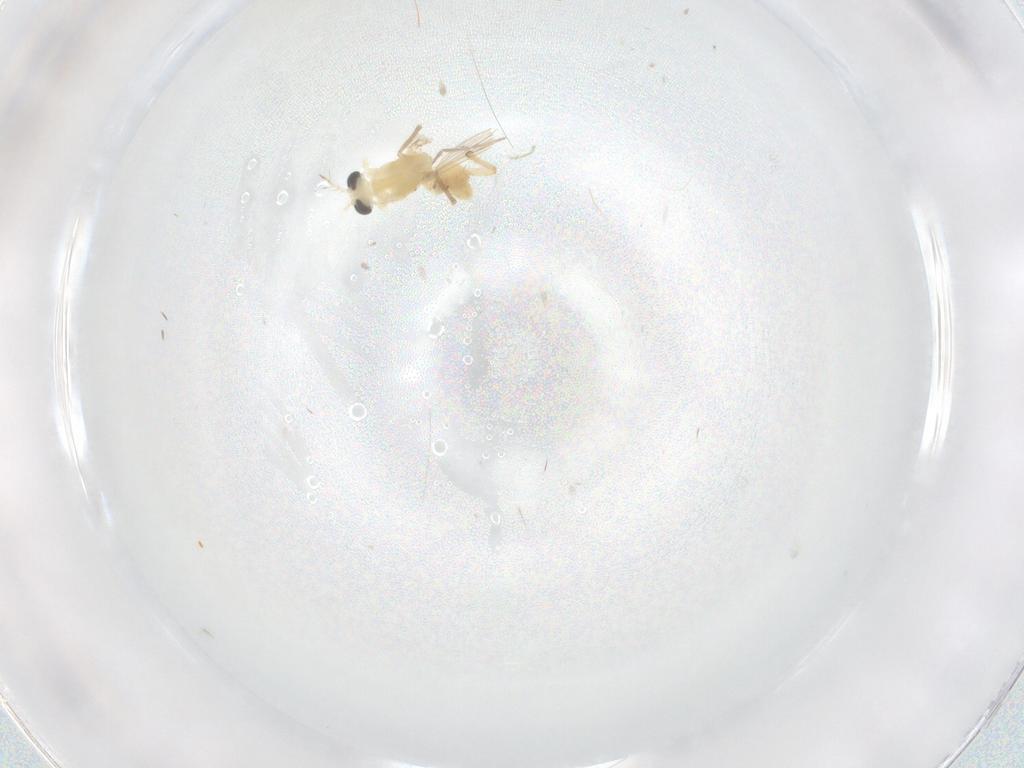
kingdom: Animalia
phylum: Arthropoda
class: Insecta
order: Diptera
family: Chironomidae
